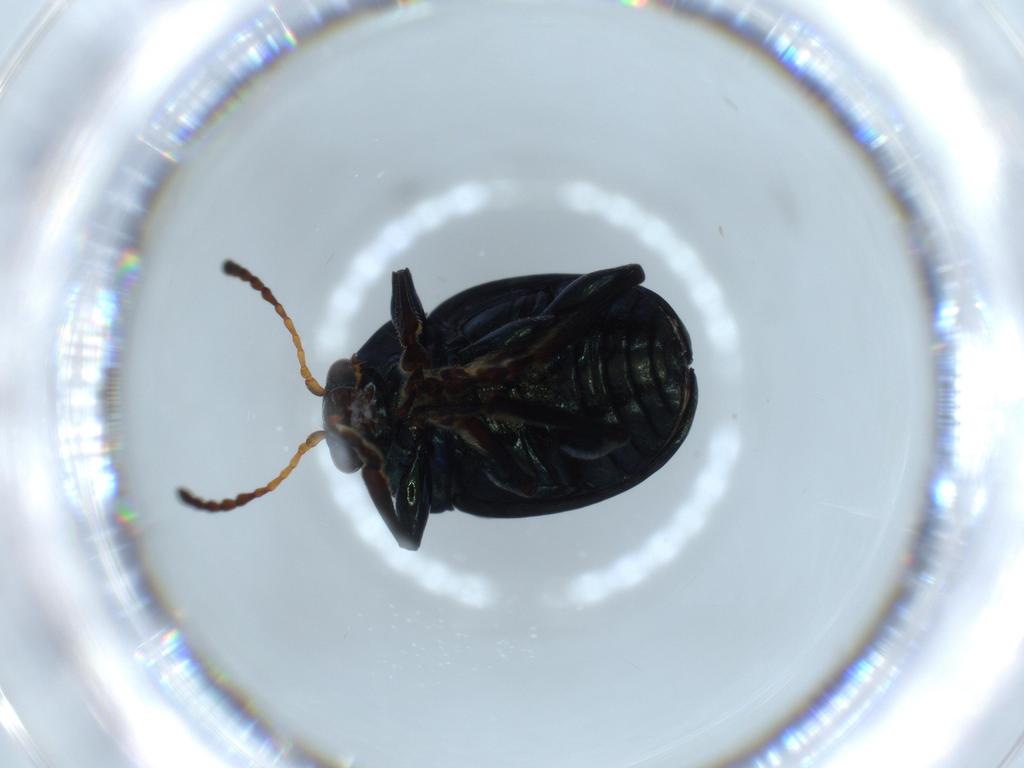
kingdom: Animalia
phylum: Arthropoda
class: Insecta
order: Coleoptera
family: Chrysomelidae
